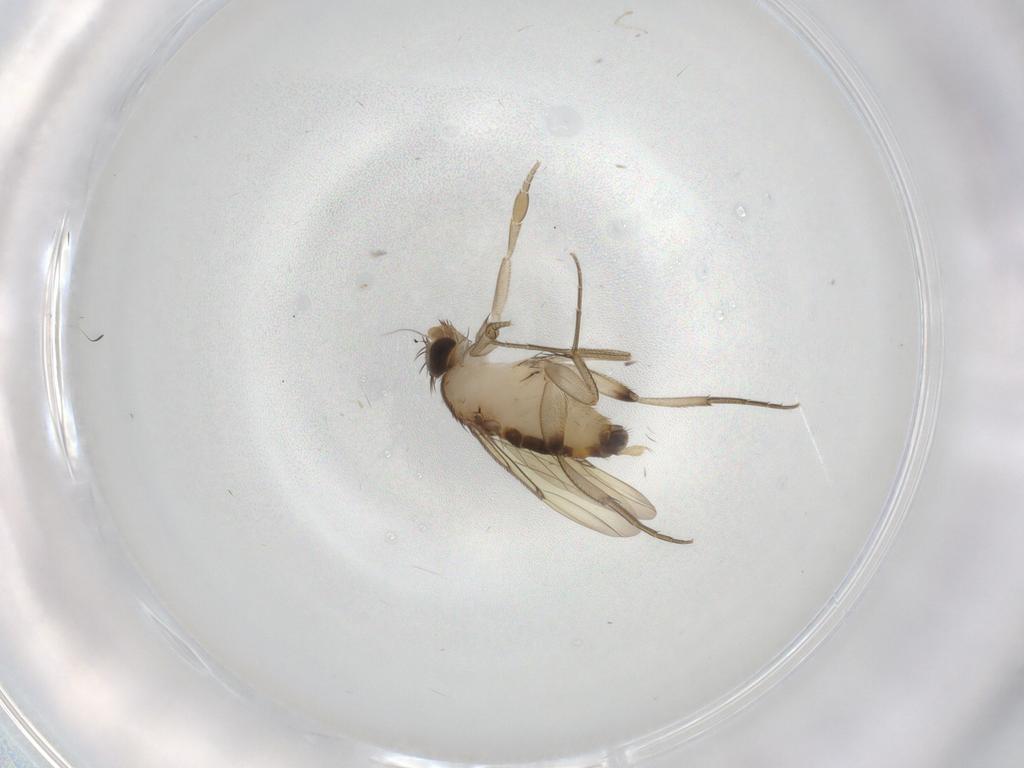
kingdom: Animalia
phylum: Arthropoda
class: Insecta
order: Diptera
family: Phoridae
